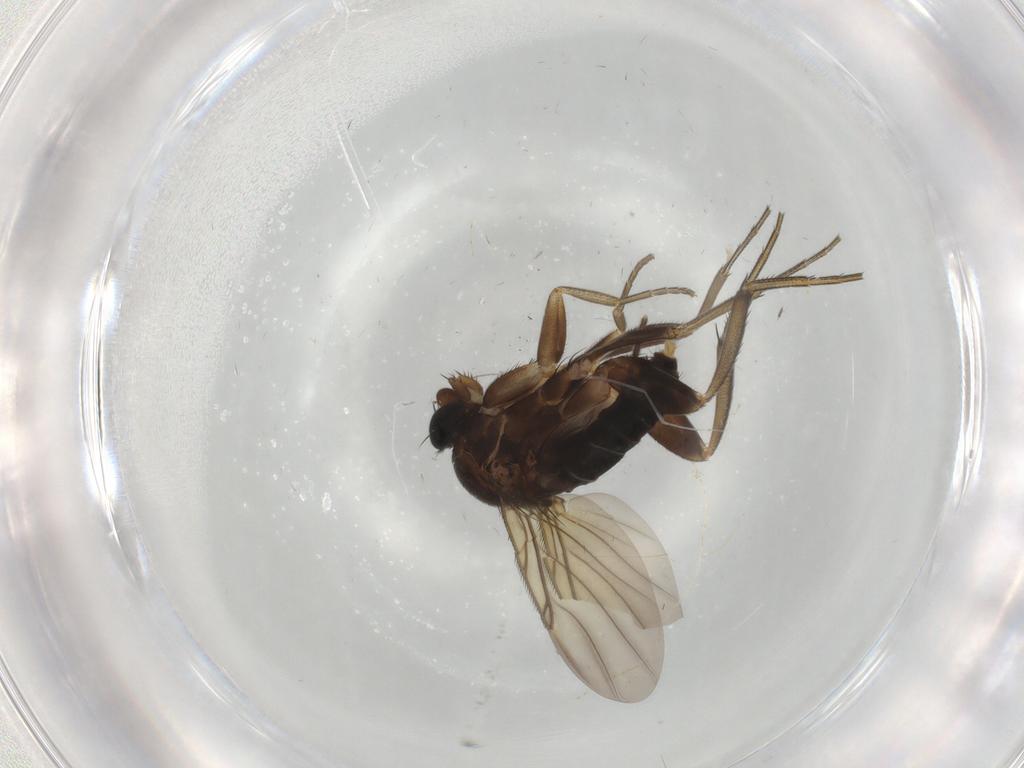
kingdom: Animalia
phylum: Arthropoda
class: Insecta
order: Diptera
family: Phoridae
